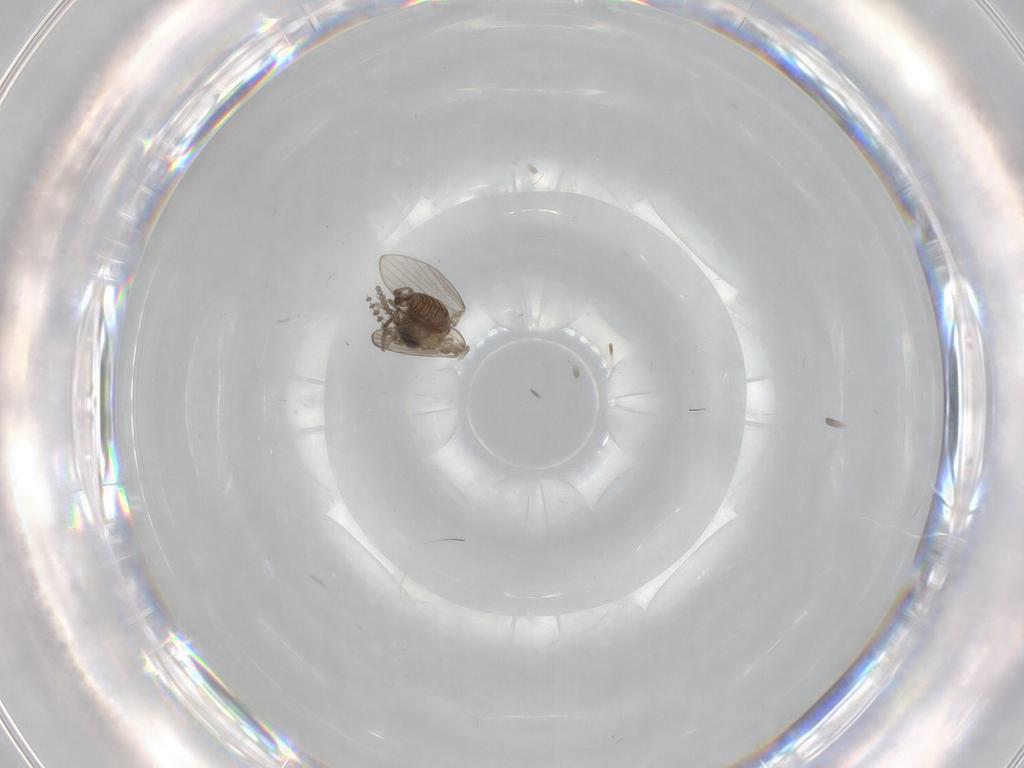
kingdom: Animalia
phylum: Arthropoda
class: Insecta
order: Diptera
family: Psychodidae
